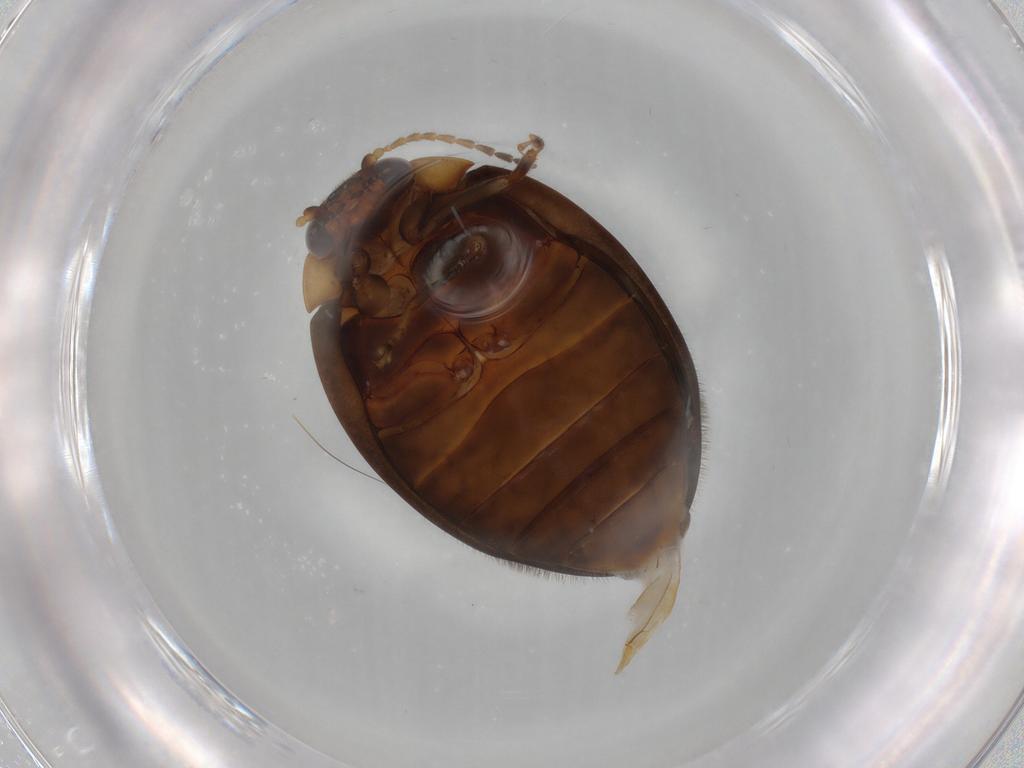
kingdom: Animalia
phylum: Arthropoda
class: Insecta
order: Coleoptera
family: Scirtidae
